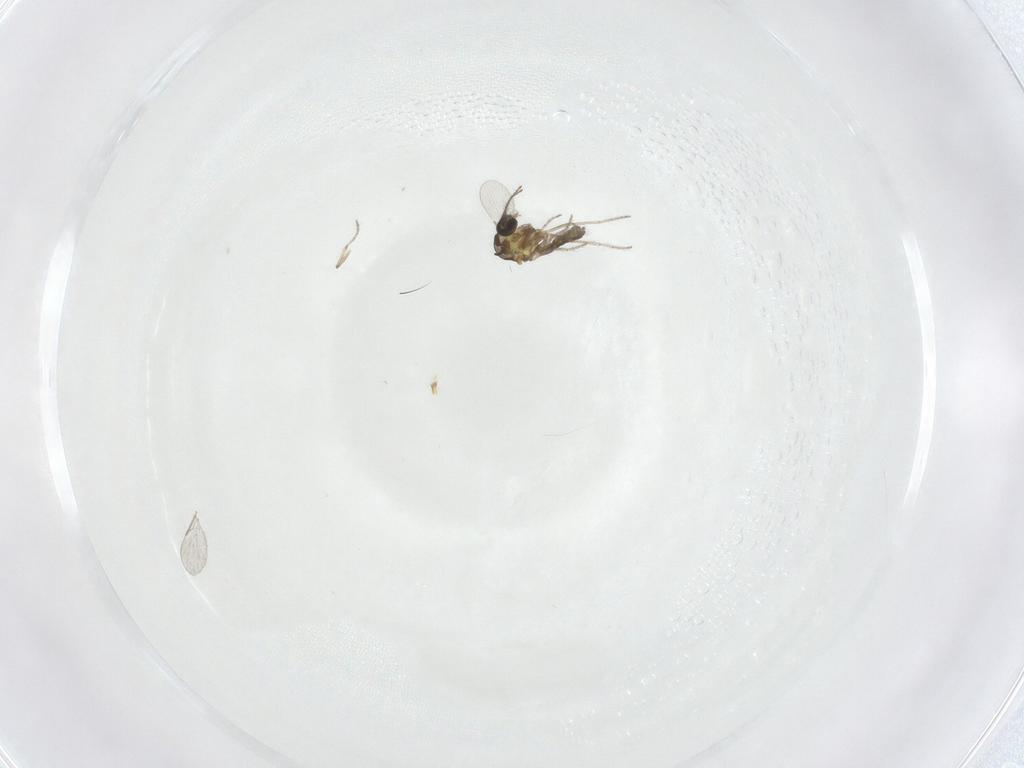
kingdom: Animalia
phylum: Arthropoda
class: Insecta
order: Diptera
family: Ceratopogonidae
